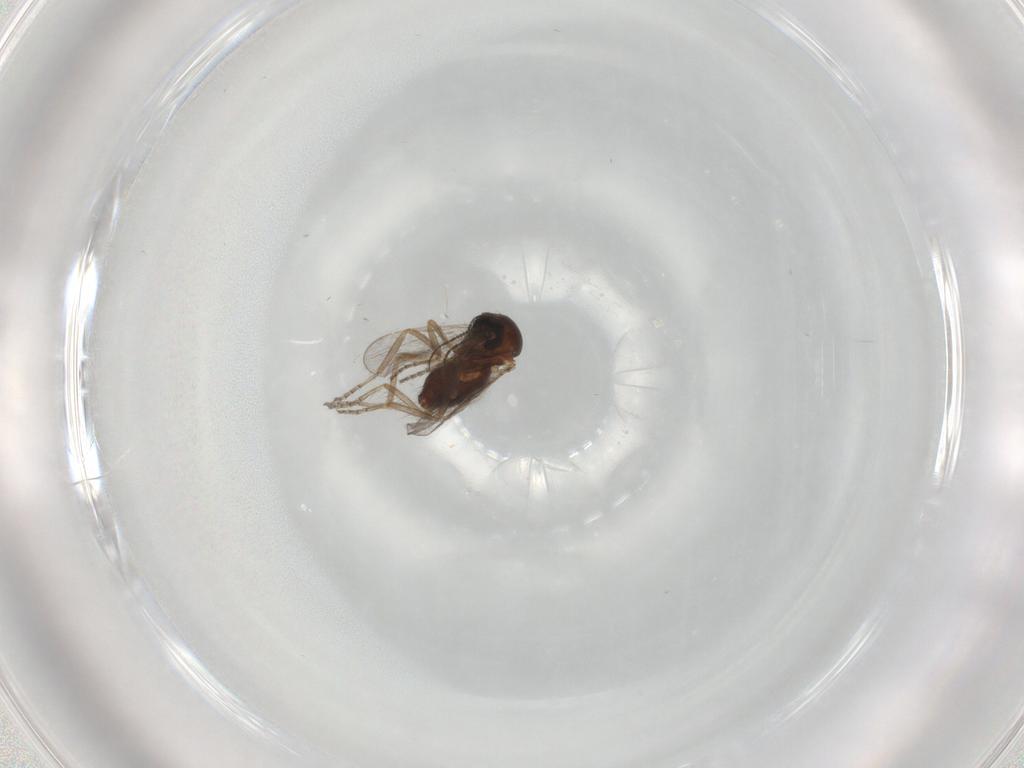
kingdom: Animalia
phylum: Arthropoda
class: Insecta
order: Diptera
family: Ceratopogonidae
